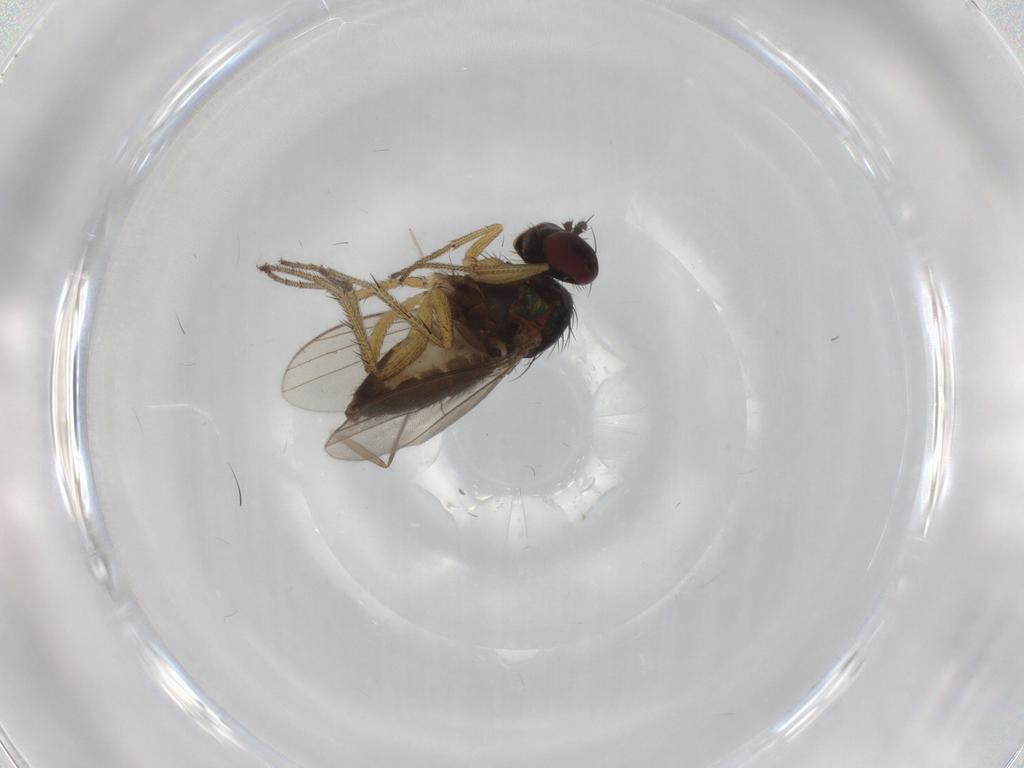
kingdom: Animalia
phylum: Arthropoda
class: Insecta
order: Diptera
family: Dolichopodidae
